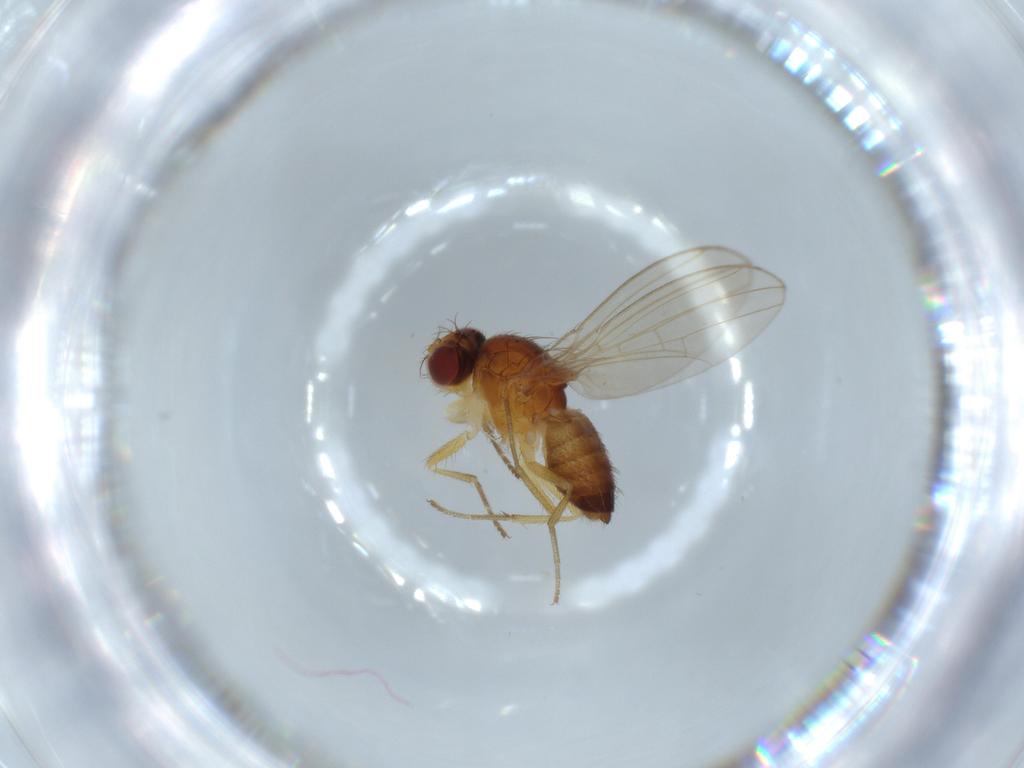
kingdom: Animalia
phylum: Arthropoda
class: Insecta
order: Diptera
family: Drosophilidae
